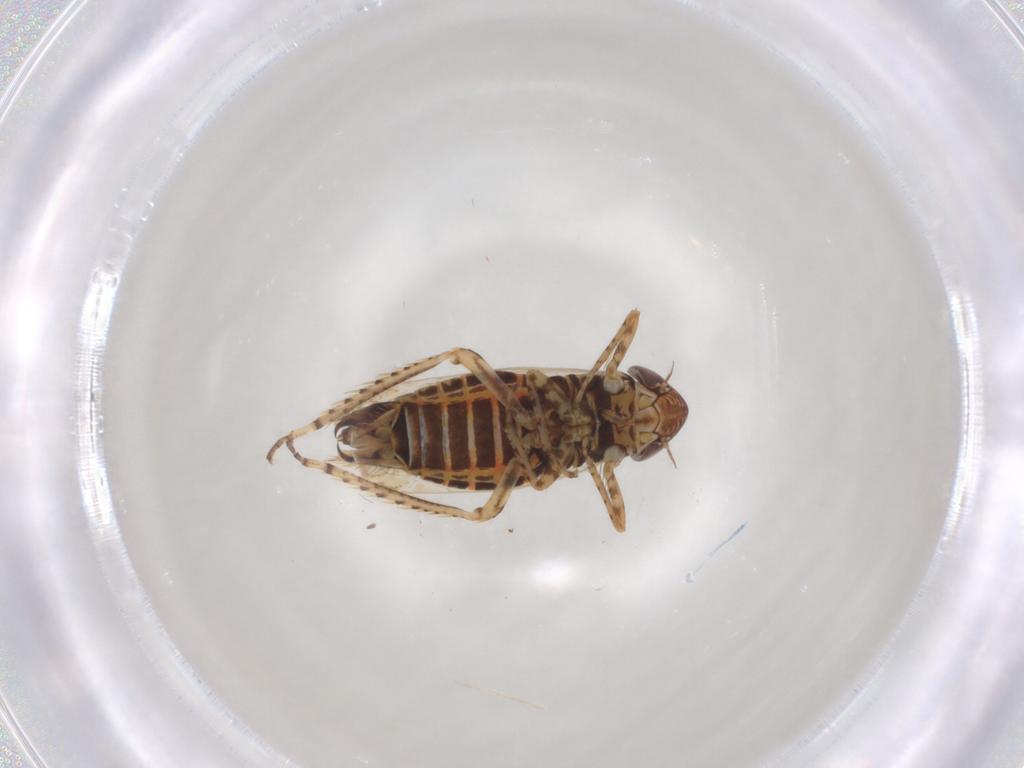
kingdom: Animalia
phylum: Arthropoda
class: Insecta
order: Hemiptera
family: Cicadellidae
